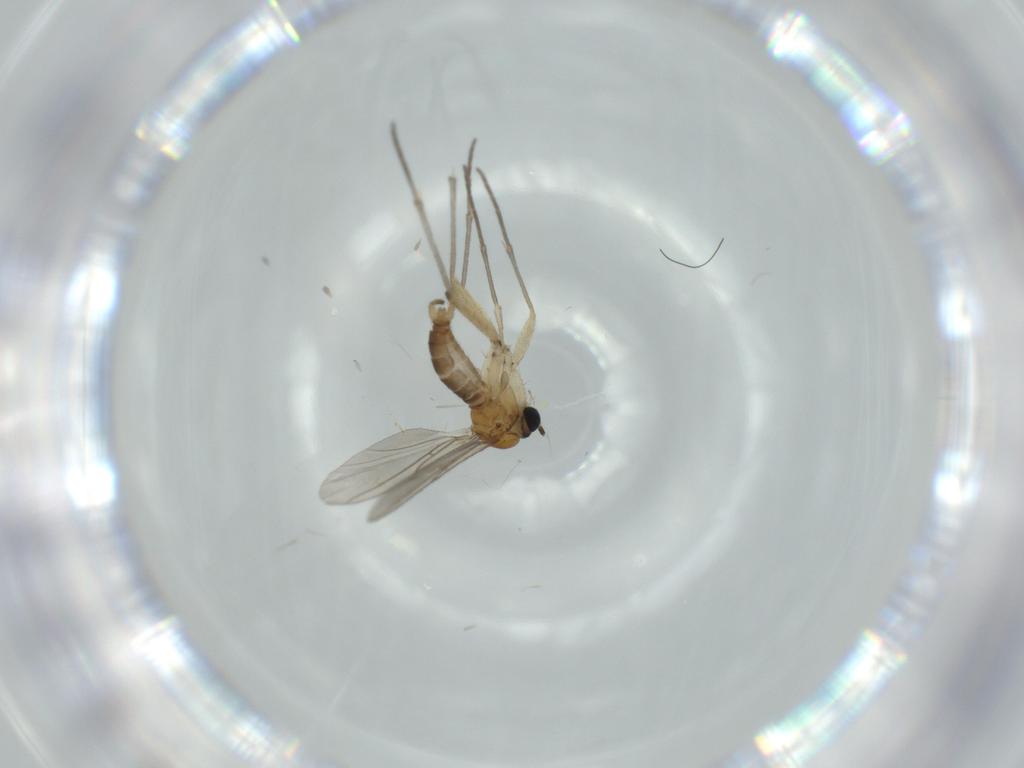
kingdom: Animalia
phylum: Arthropoda
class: Insecta
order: Diptera
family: Sciaridae
